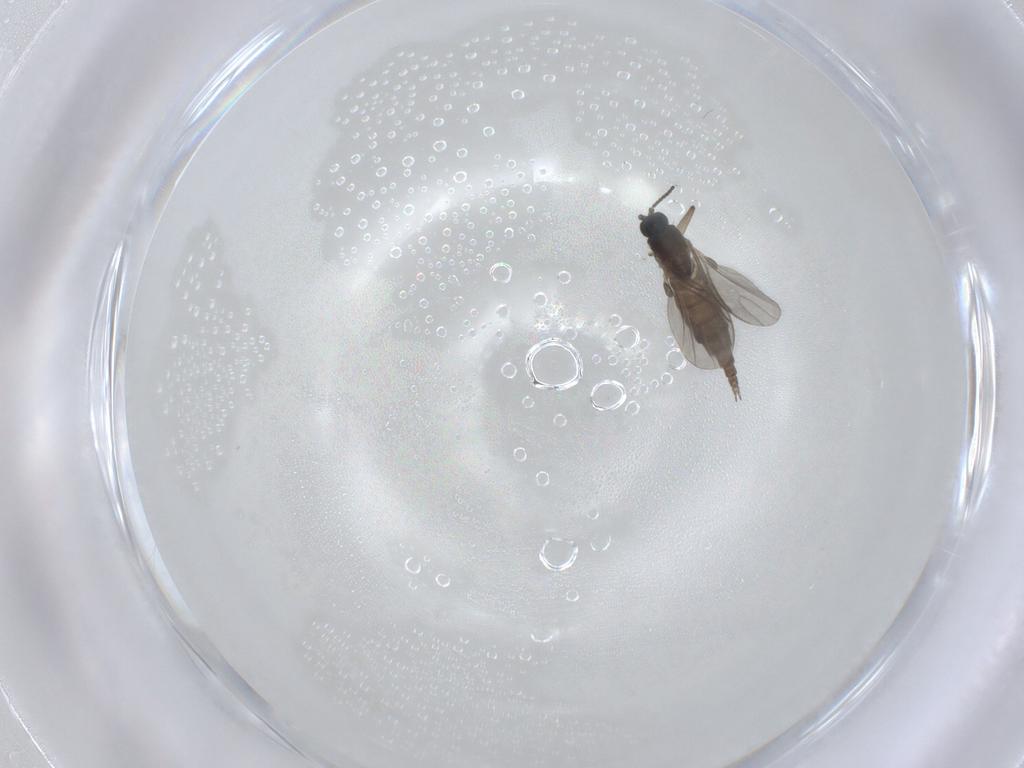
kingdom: Animalia
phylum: Arthropoda
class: Insecta
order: Diptera
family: Sciaridae
